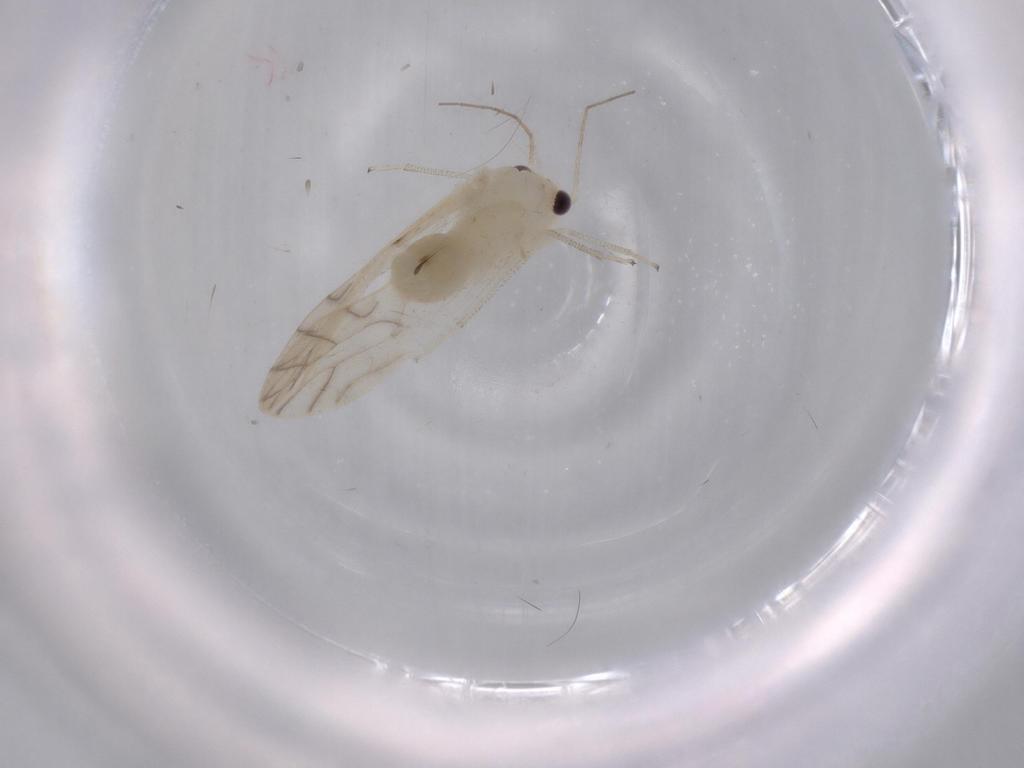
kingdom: Animalia
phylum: Arthropoda
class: Insecta
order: Psocodea
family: Caeciliusidae
